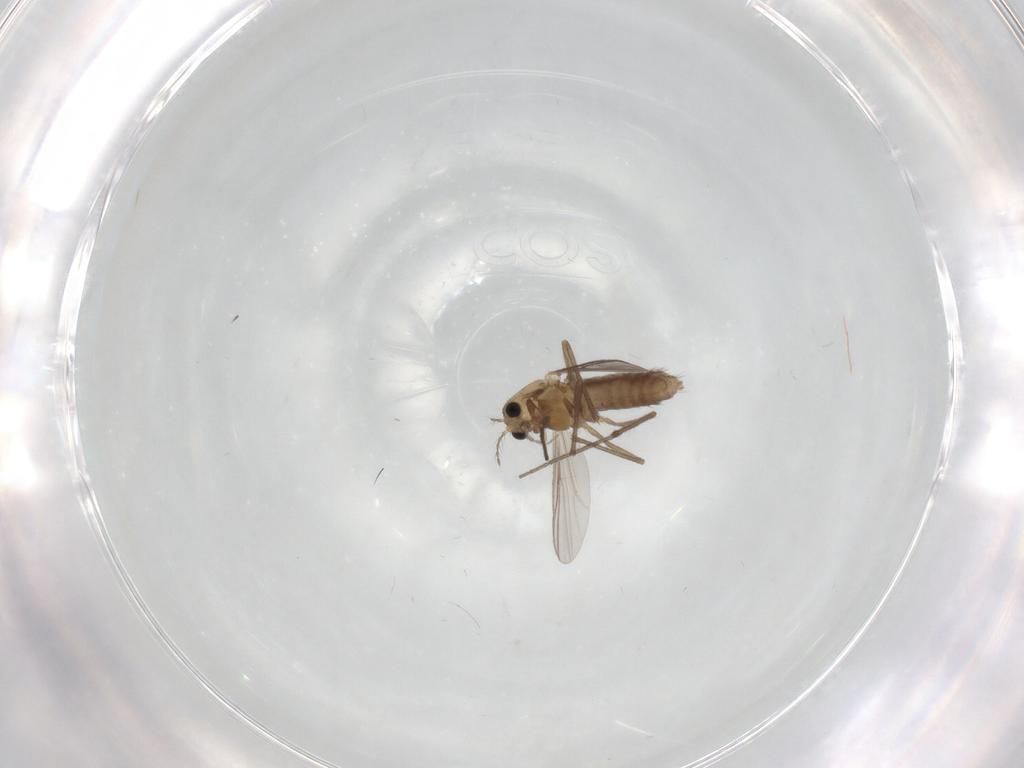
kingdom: Animalia
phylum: Arthropoda
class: Insecta
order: Diptera
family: Chironomidae
